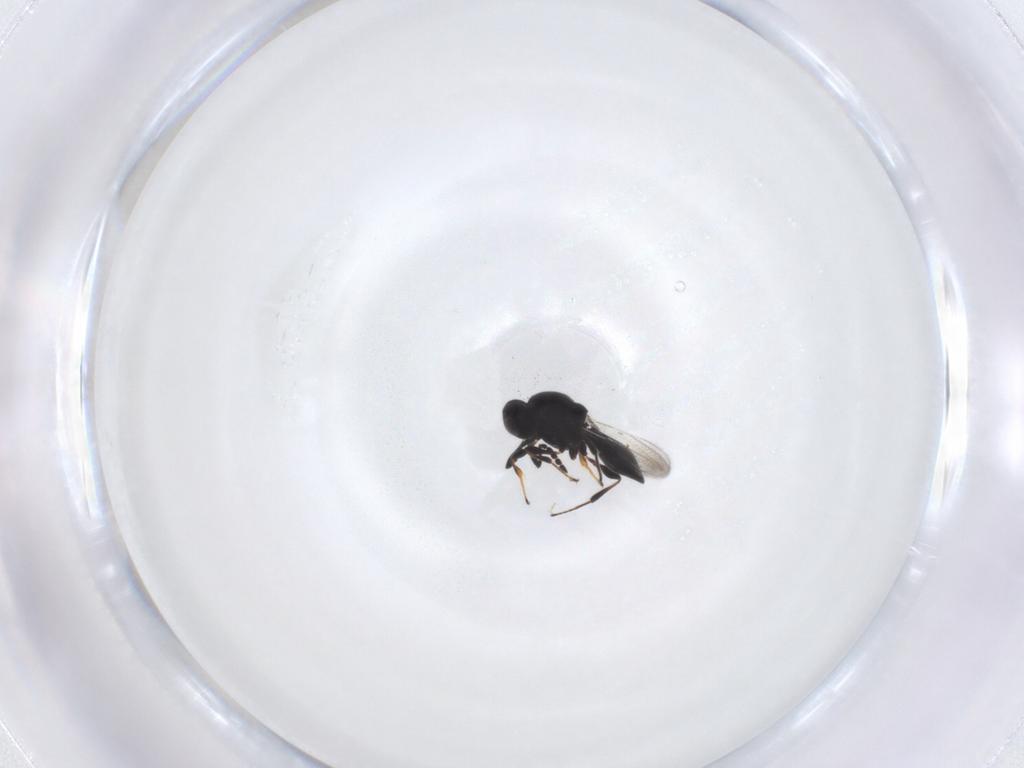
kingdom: Animalia
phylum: Arthropoda
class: Insecta
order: Hymenoptera
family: Platygastridae
